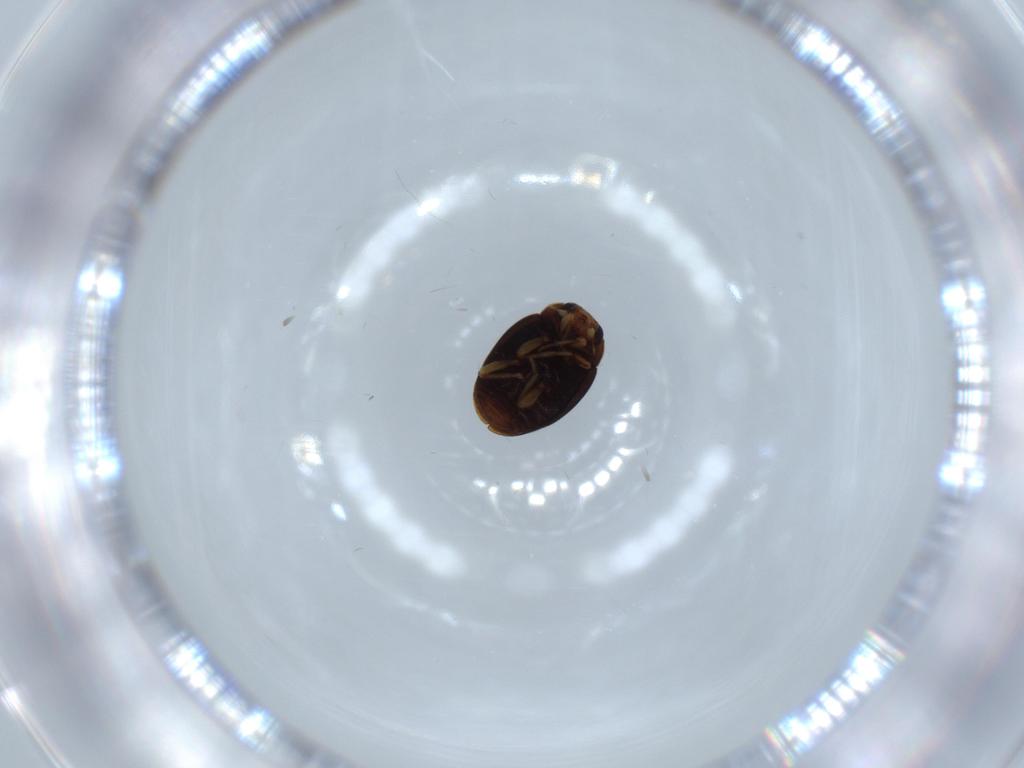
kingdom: Animalia
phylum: Arthropoda
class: Insecta
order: Coleoptera
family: Coccinellidae
